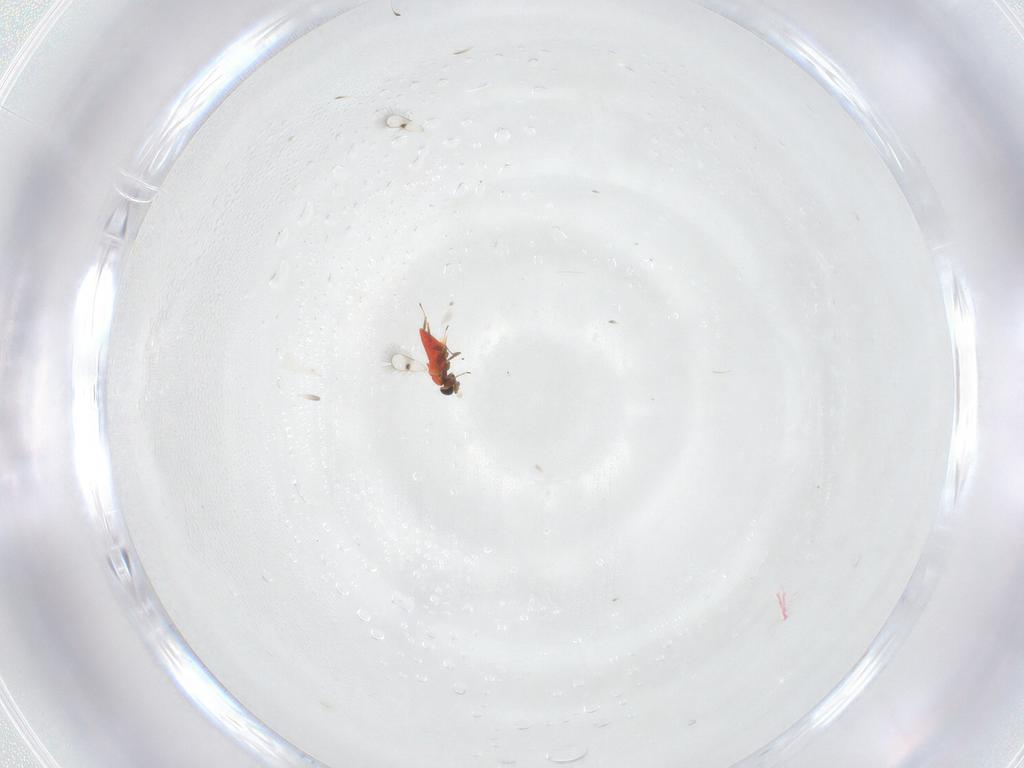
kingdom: Animalia
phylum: Arthropoda
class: Insecta
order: Hymenoptera
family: Trichogrammatidae
